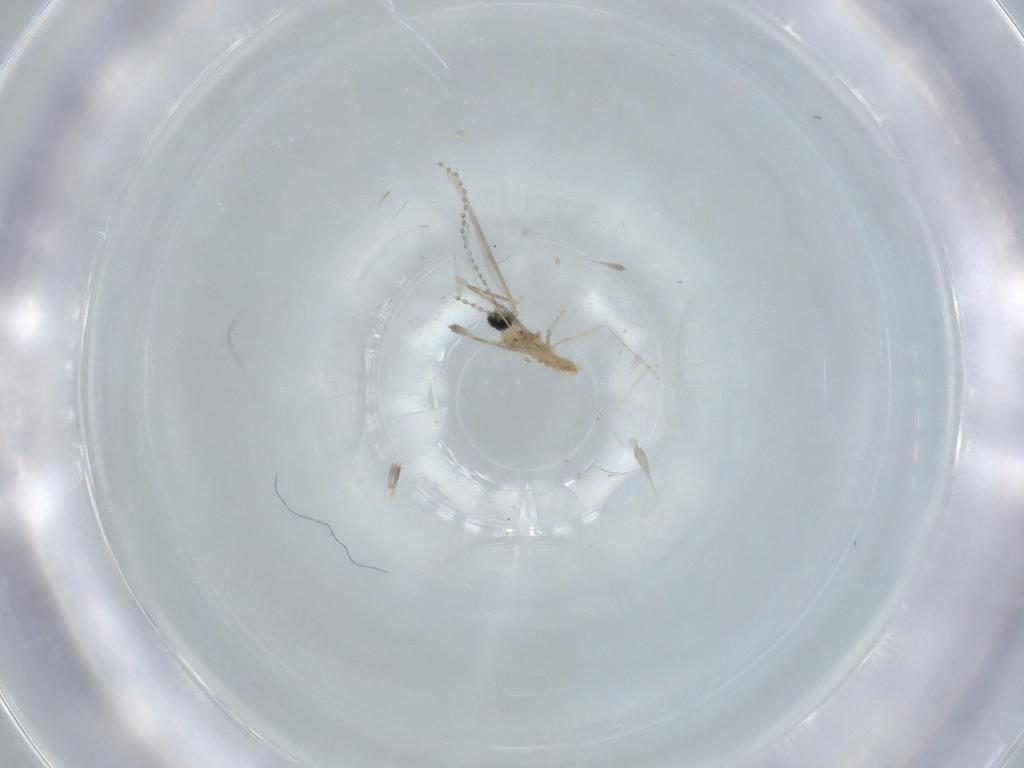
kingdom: Animalia
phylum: Arthropoda
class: Insecta
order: Diptera
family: Cecidomyiidae
